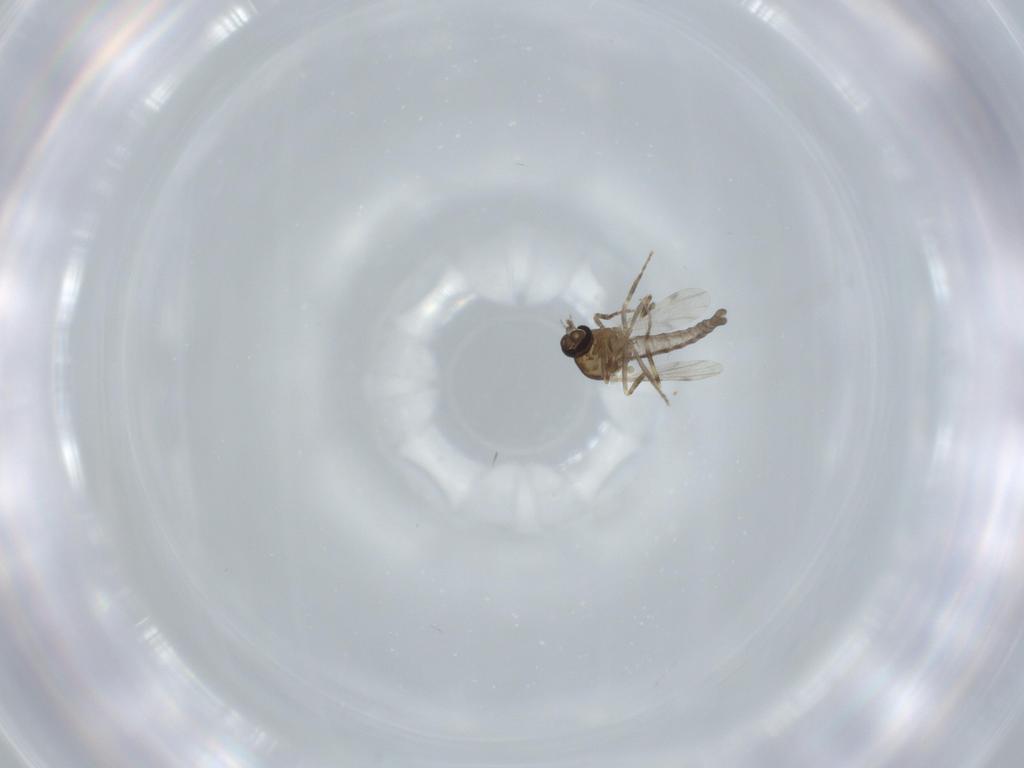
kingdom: Animalia
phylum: Arthropoda
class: Insecta
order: Diptera
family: Ceratopogonidae
